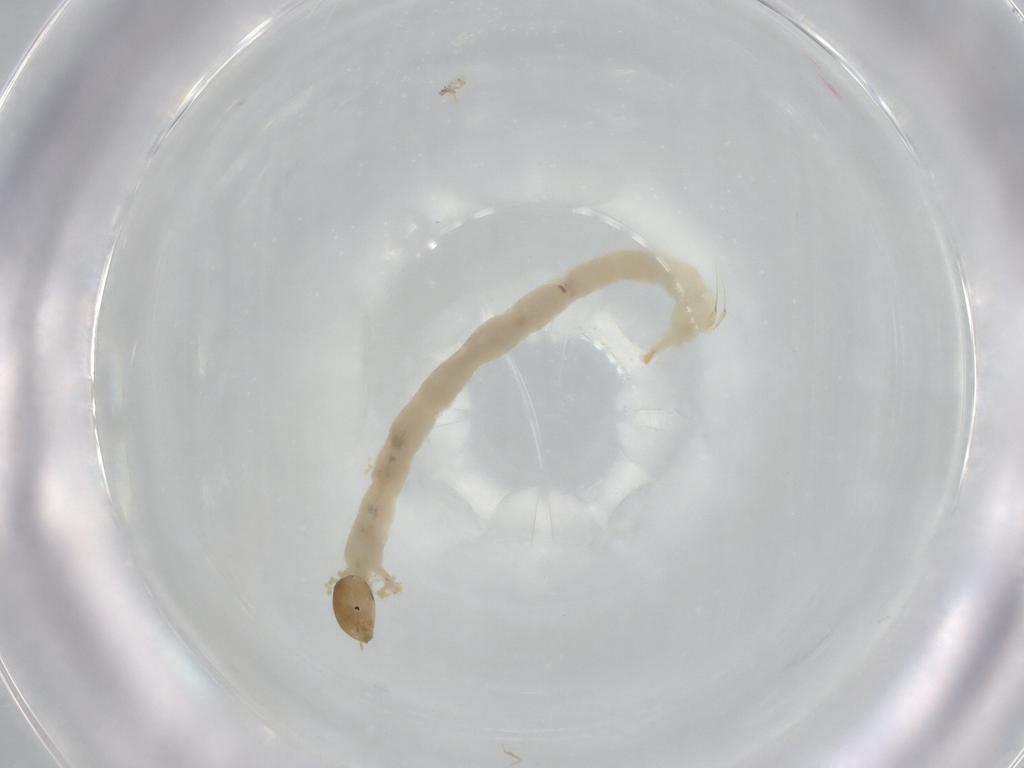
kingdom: Animalia
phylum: Arthropoda
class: Insecta
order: Diptera
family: Chironomidae
